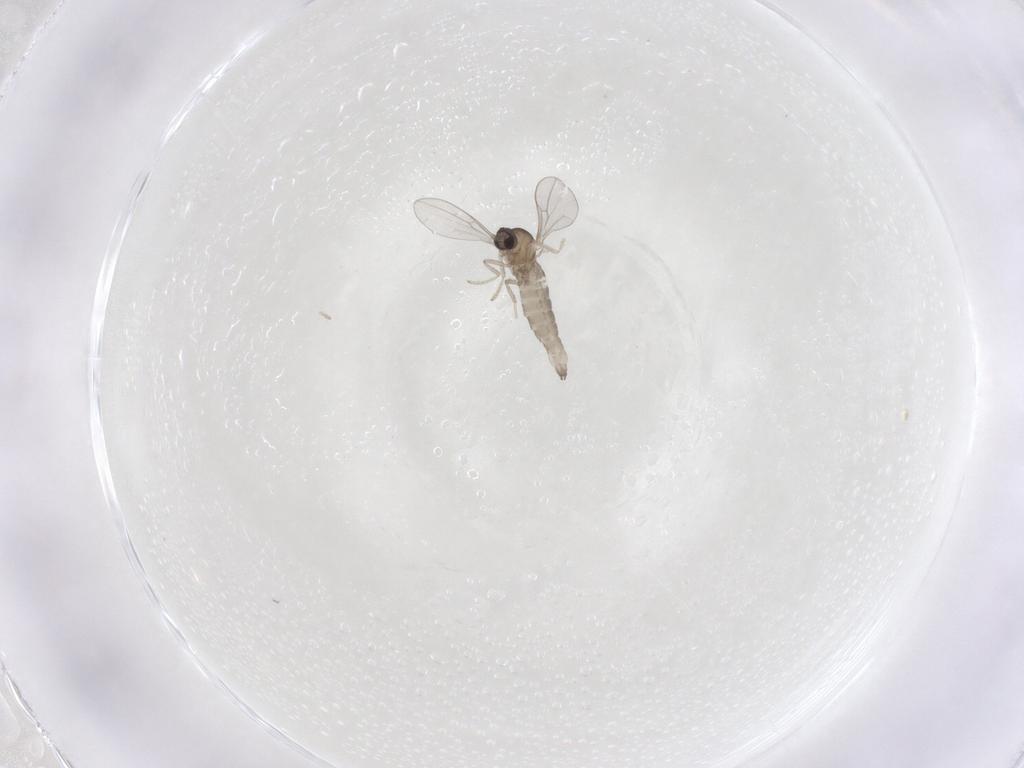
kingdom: Animalia
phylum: Arthropoda
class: Insecta
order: Diptera
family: Cecidomyiidae
